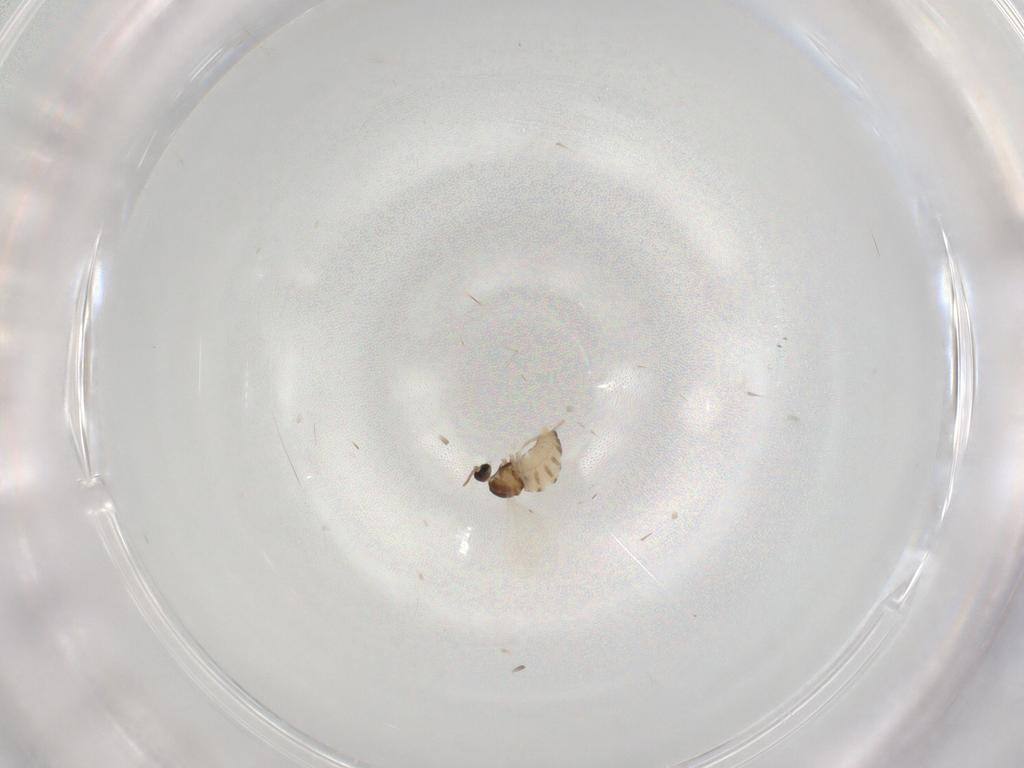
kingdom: Animalia
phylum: Arthropoda
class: Insecta
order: Diptera
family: Cecidomyiidae
